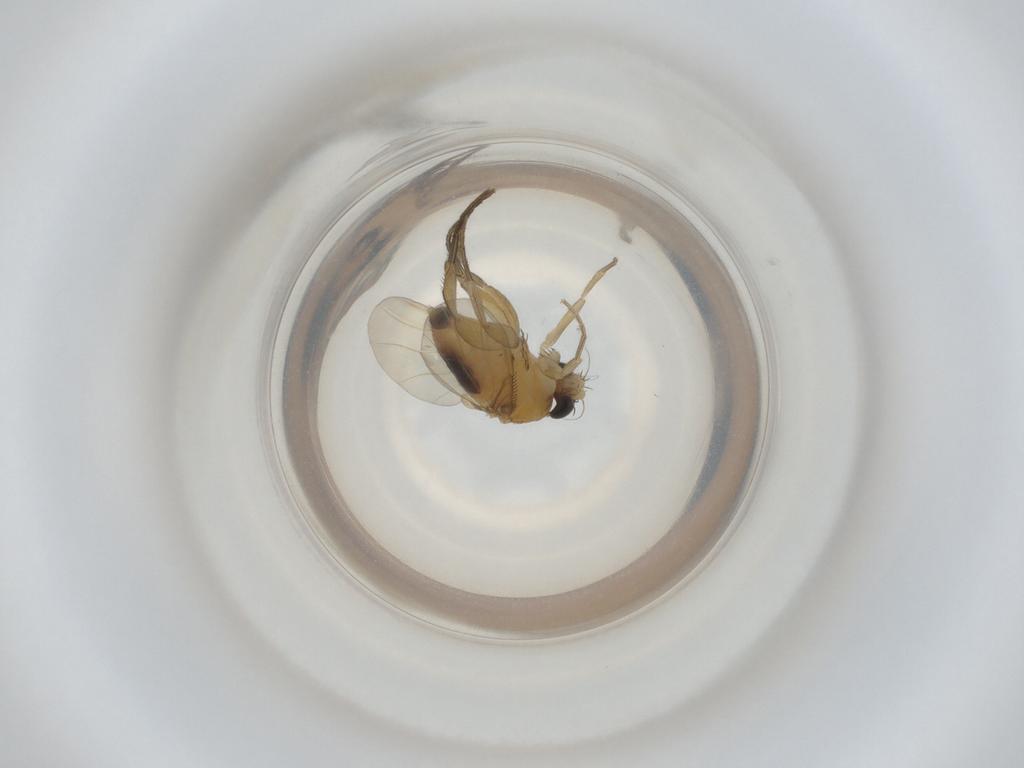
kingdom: Animalia
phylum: Arthropoda
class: Insecta
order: Diptera
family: Phoridae
